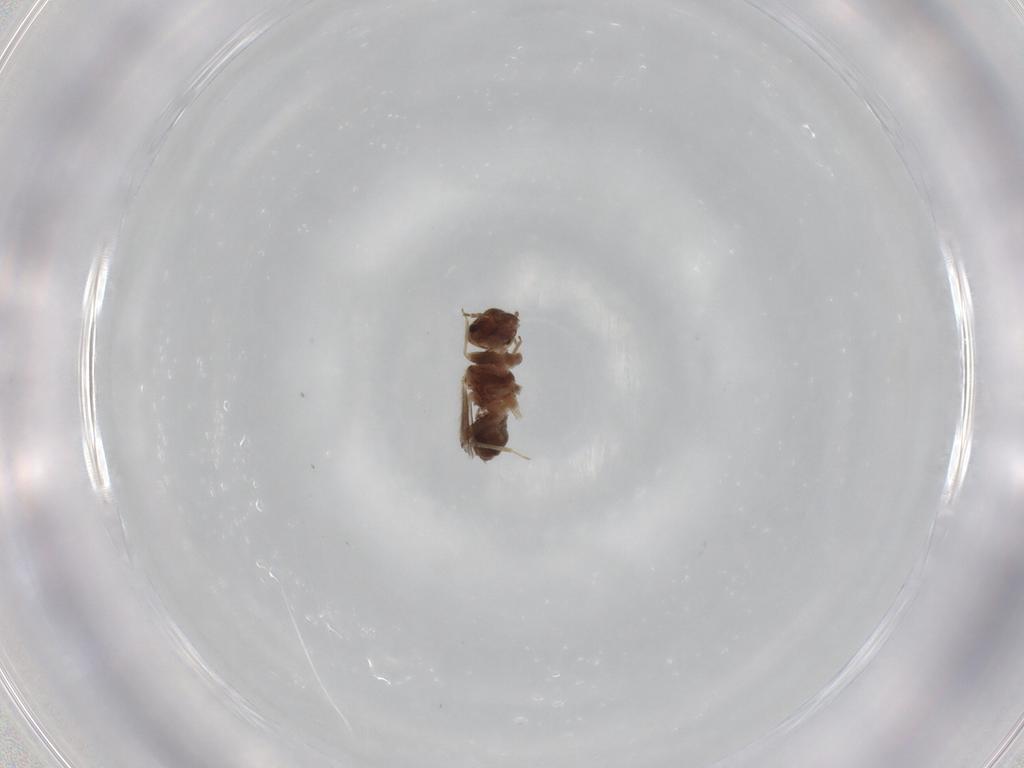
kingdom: Animalia
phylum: Arthropoda
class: Insecta
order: Psocodea
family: Archipsocidae
